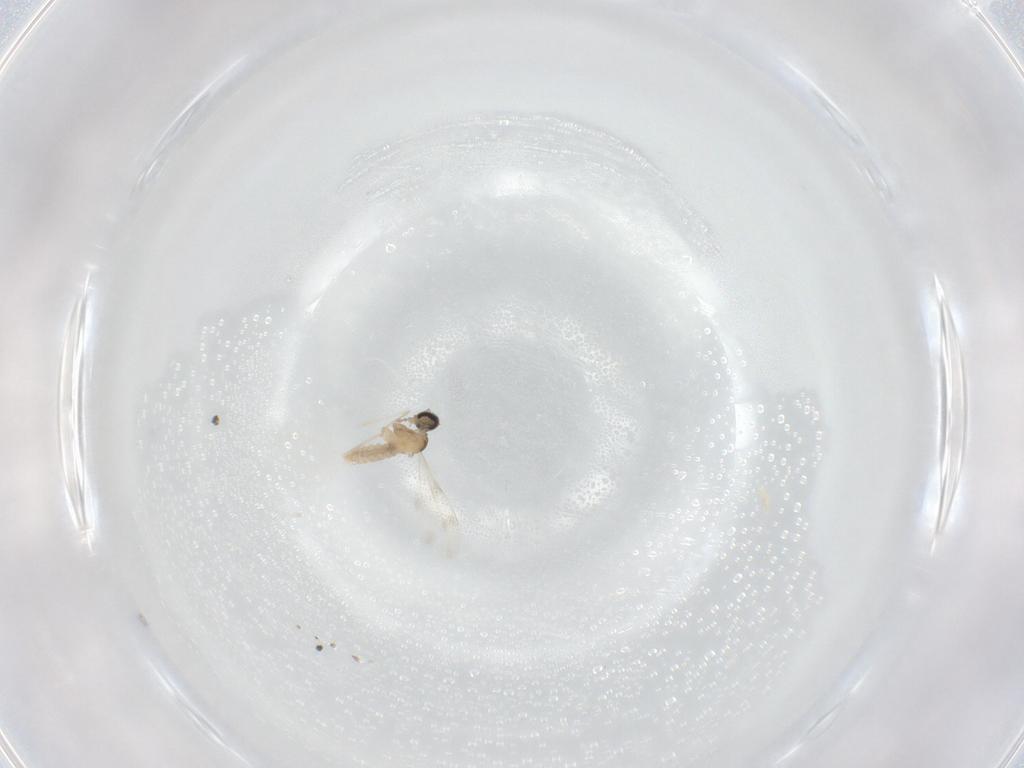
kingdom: Animalia
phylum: Arthropoda
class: Insecta
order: Diptera
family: Cecidomyiidae
